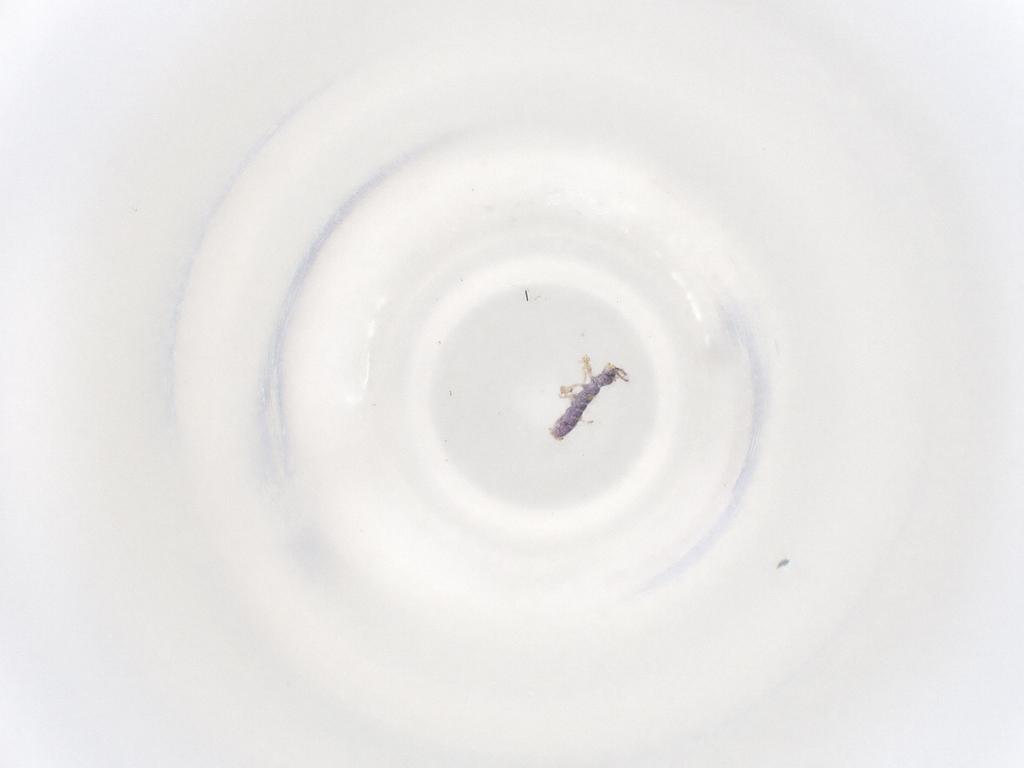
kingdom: Animalia
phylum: Arthropoda
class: Collembola
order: Entomobryomorpha
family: Isotomidae
